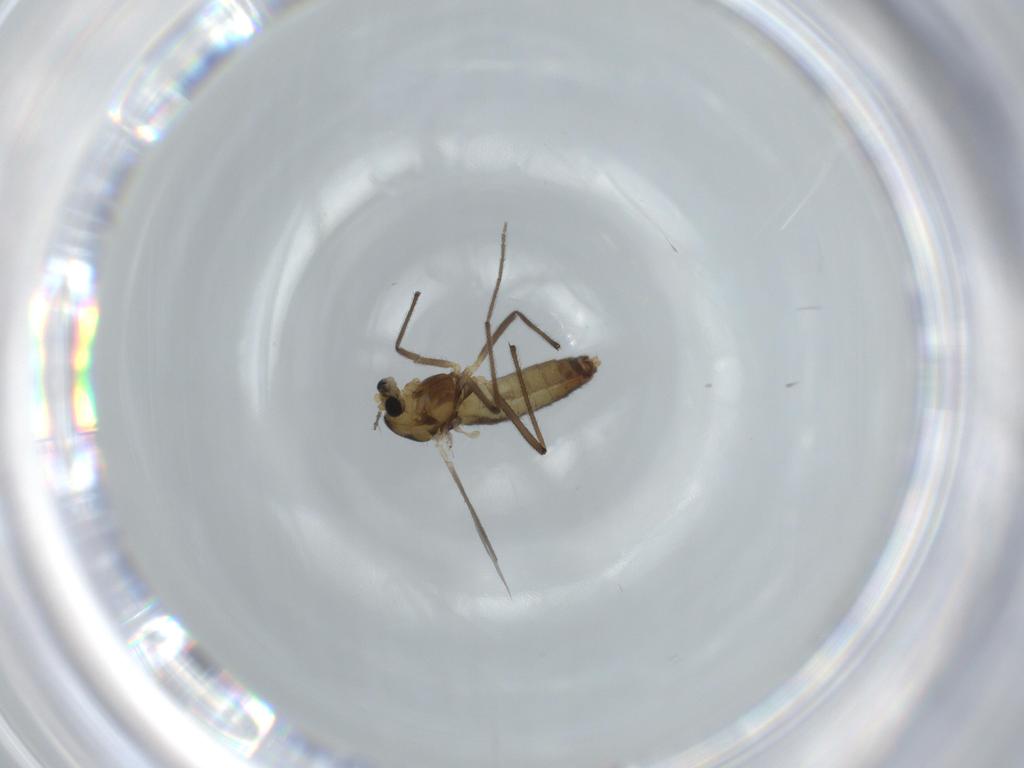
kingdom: Animalia
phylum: Arthropoda
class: Insecta
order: Diptera
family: Chironomidae
